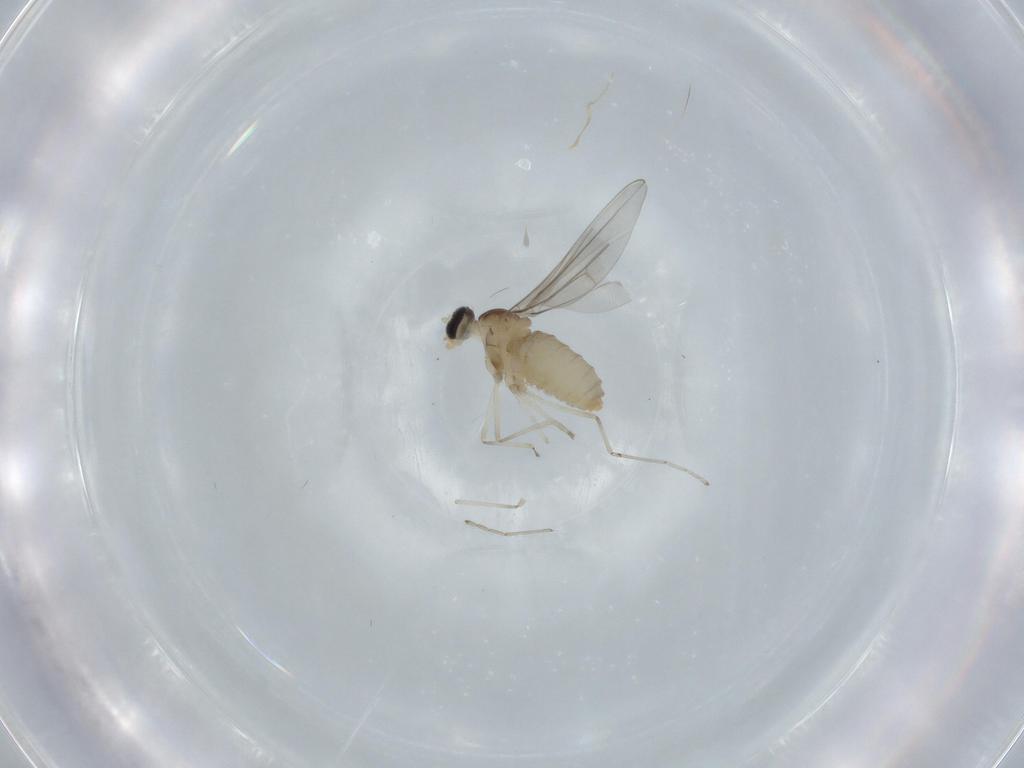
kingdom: Animalia
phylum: Arthropoda
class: Insecta
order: Diptera
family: Cecidomyiidae
